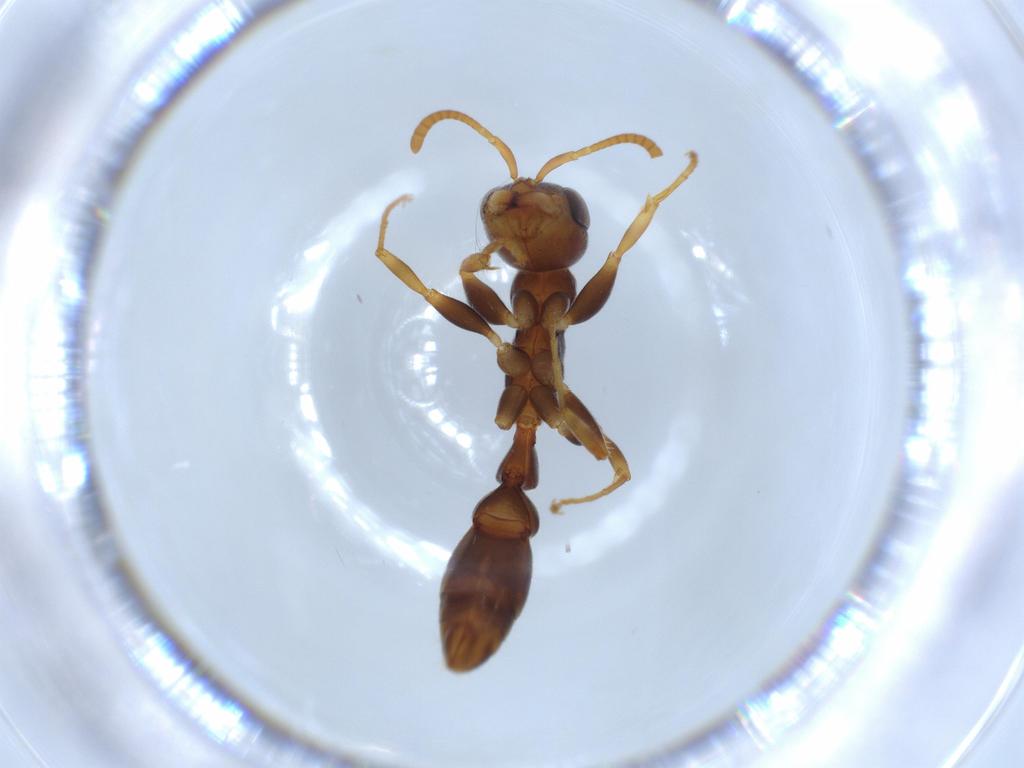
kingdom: Animalia
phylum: Arthropoda
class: Insecta
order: Hymenoptera
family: Formicidae
